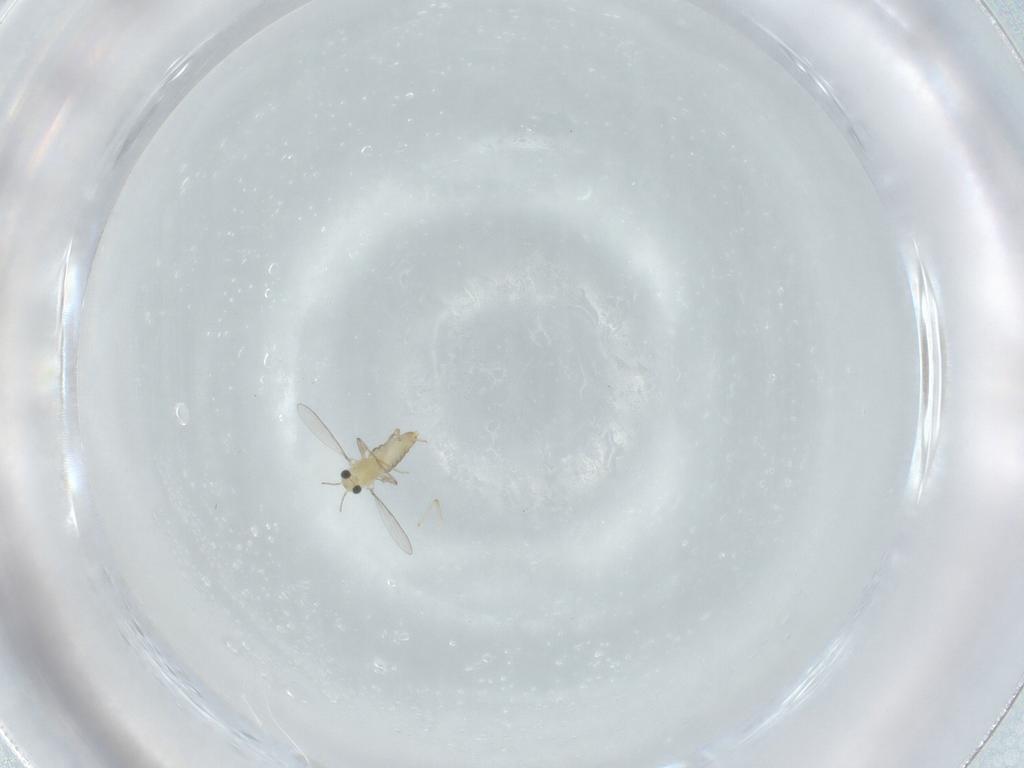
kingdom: Animalia
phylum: Arthropoda
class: Insecta
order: Diptera
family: Chironomidae
